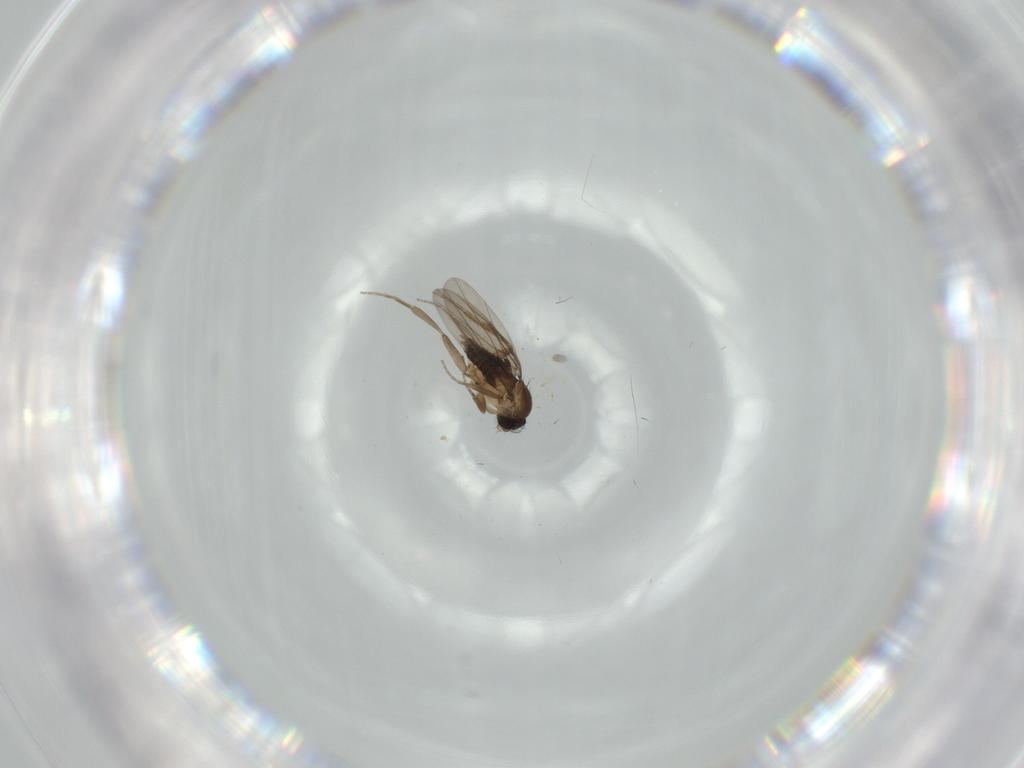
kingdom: Animalia
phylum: Arthropoda
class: Insecta
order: Diptera
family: Phoridae
